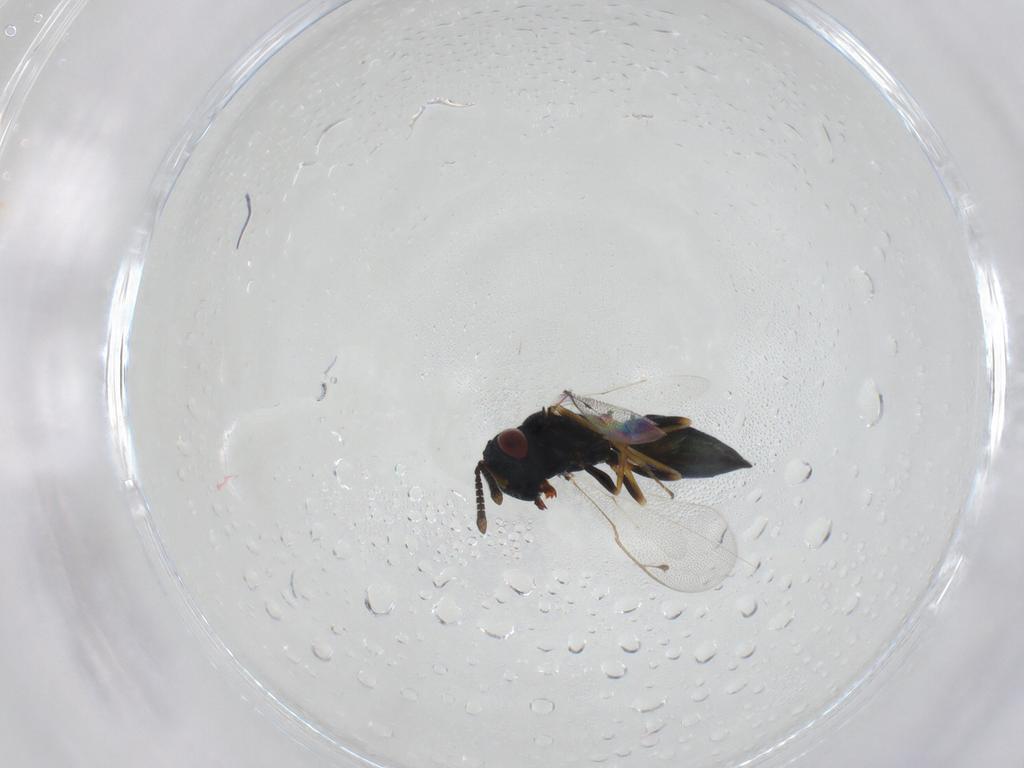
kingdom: Animalia
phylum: Arthropoda
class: Insecta
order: Hymenoptera
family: Pteromalidae
